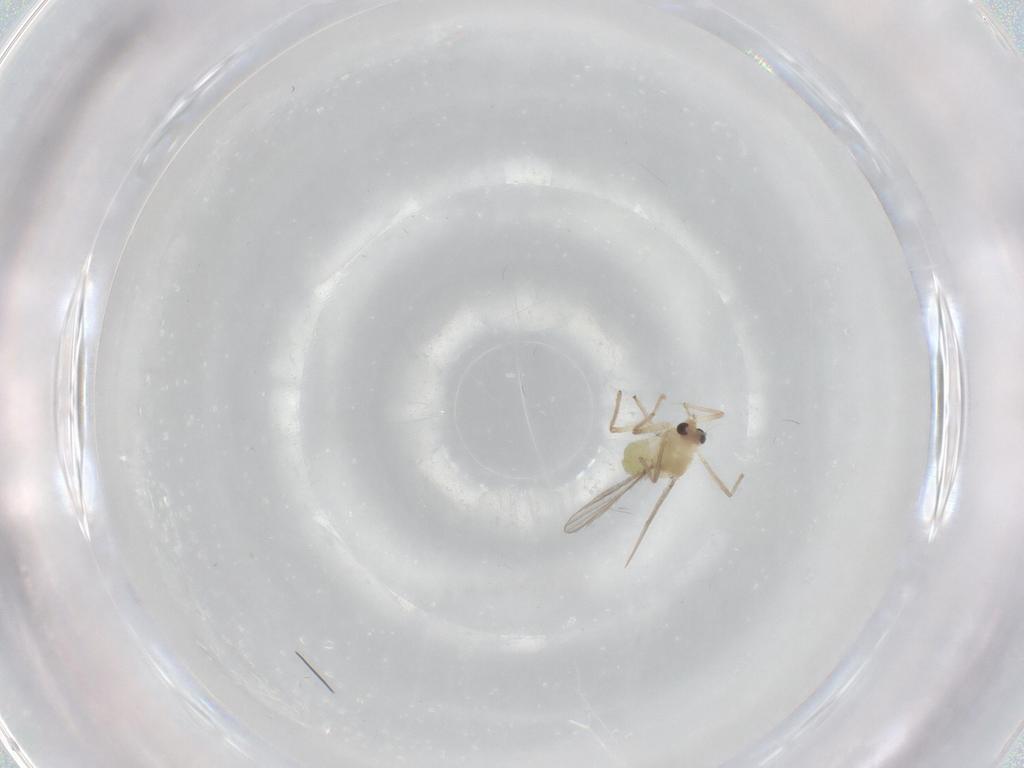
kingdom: Animalia
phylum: Arthropoda
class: Insecta
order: Diptera
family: Chironomidae
